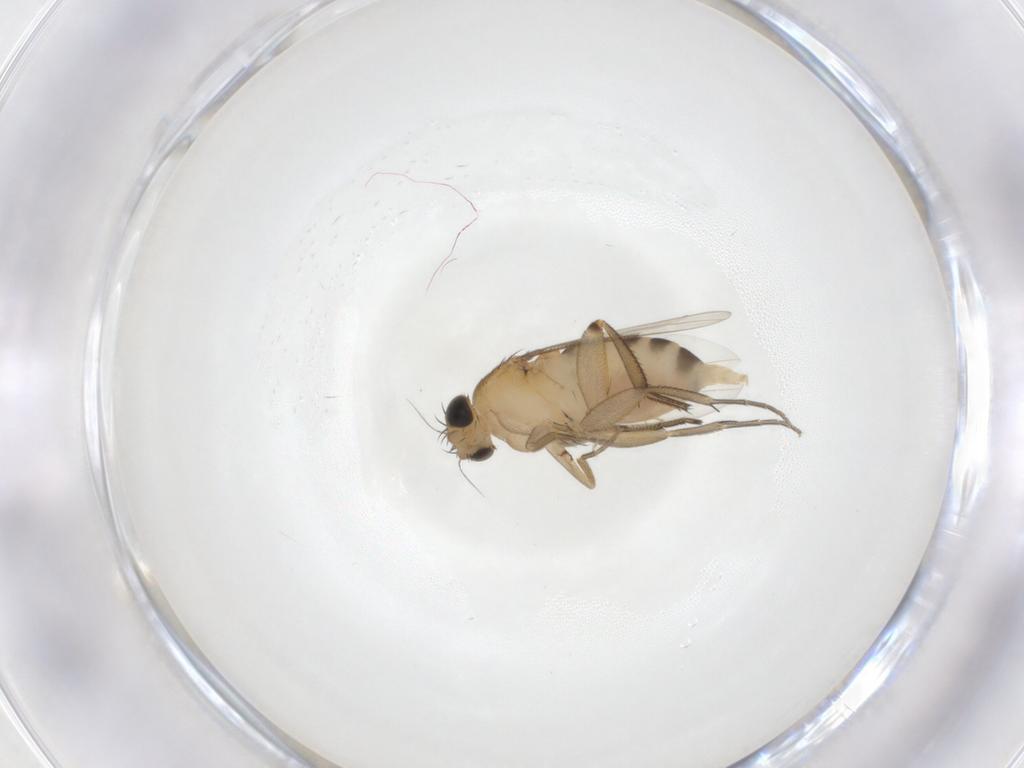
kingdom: Animalia
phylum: Arthropoda
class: Insecta
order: Diptera
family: Phoridae
